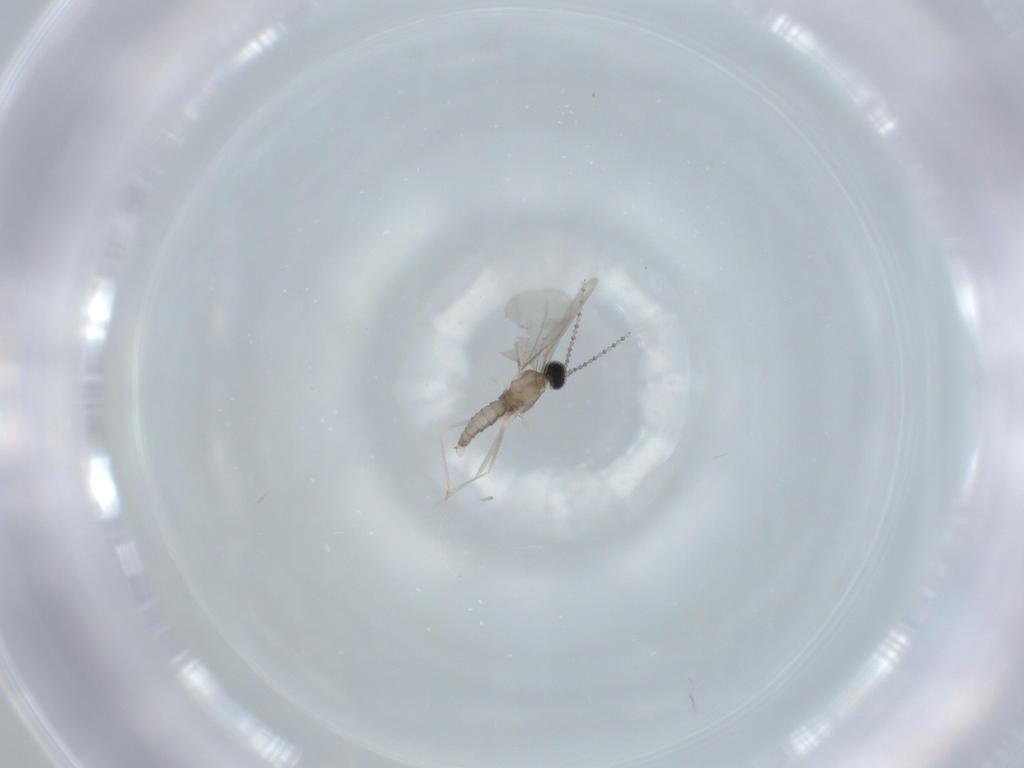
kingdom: Animalia
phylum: Arthropoda
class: Insecta
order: Diptera
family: Cecidomyiidae
